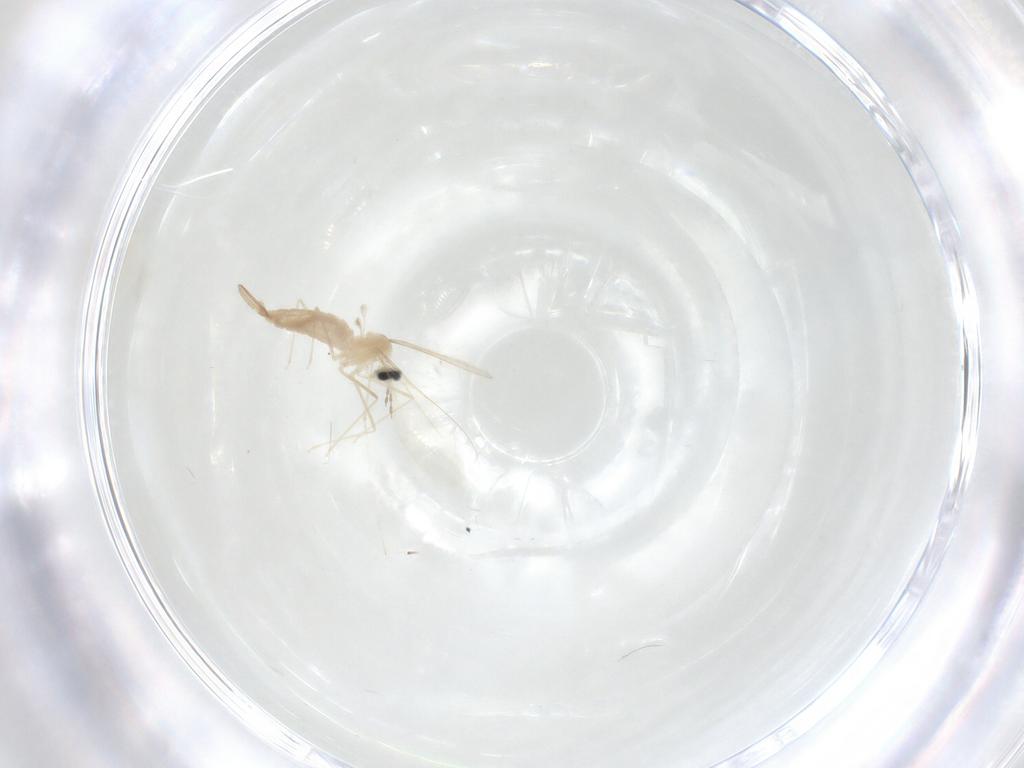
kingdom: Animalia
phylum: Arthropoda
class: Insecta
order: Diptera
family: Cecidomyiidae
